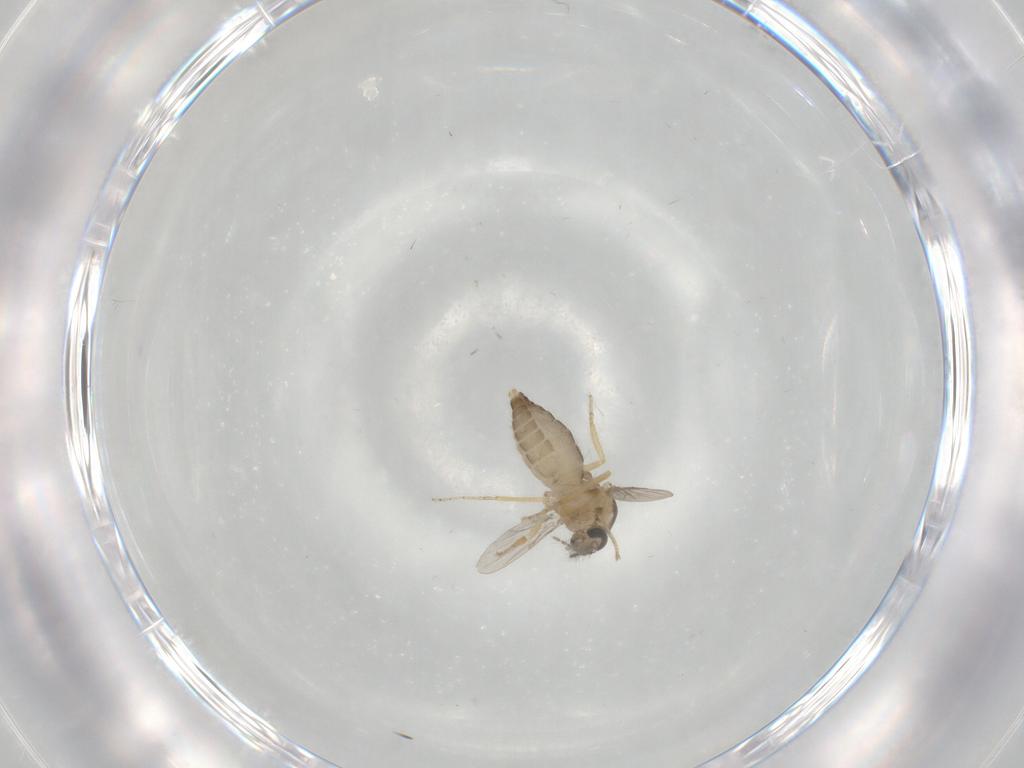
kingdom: Animalia
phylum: Arthropoda
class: Insecta
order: Diptera
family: Ceratopogonidae
